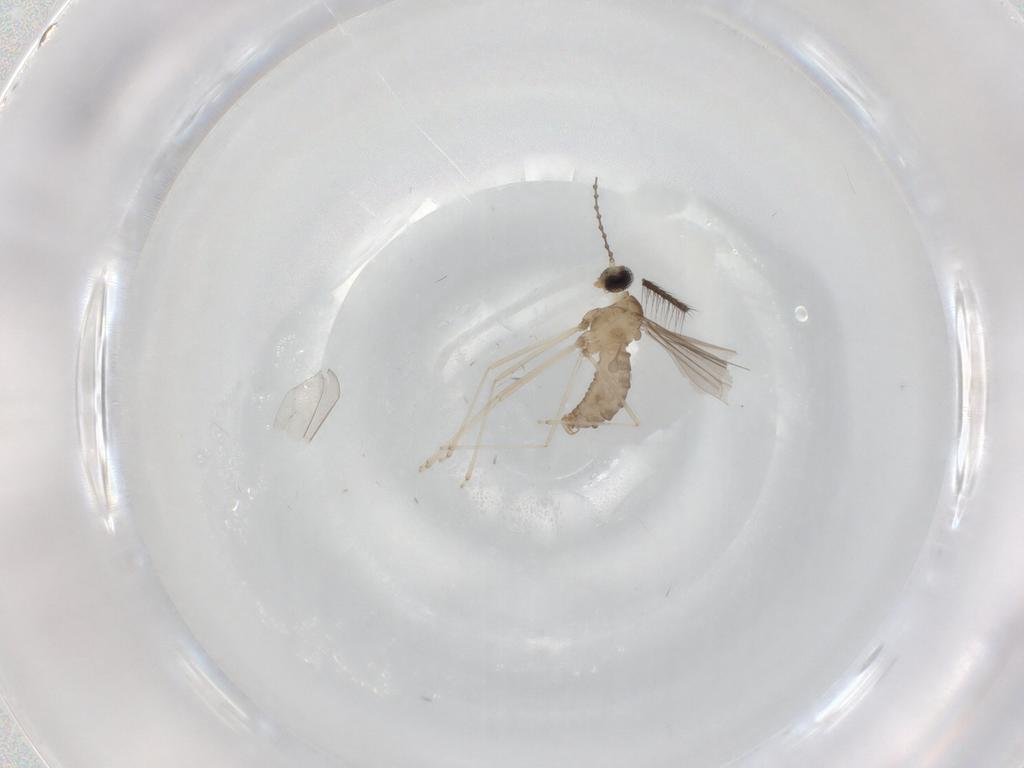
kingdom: Animalia
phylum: Arthropoda
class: Insecta
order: Diptera
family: Cecidomyiidae
